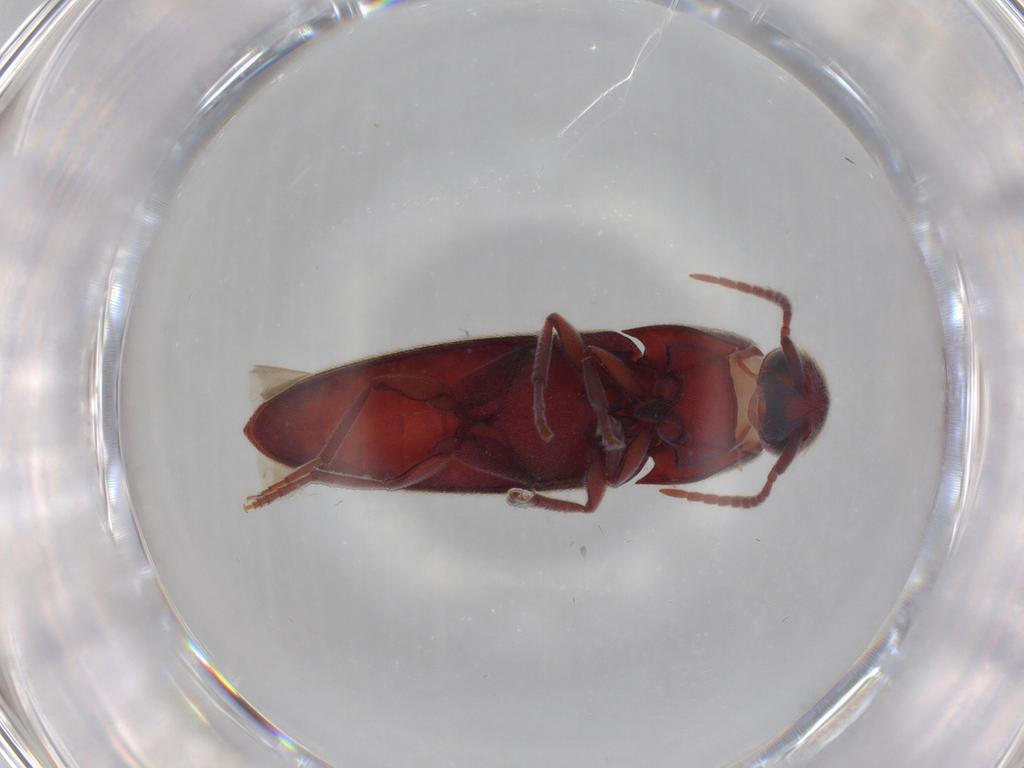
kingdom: Animalia
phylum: Arthropoda
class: Insecta
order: Coleoptera
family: Eucnemidae
